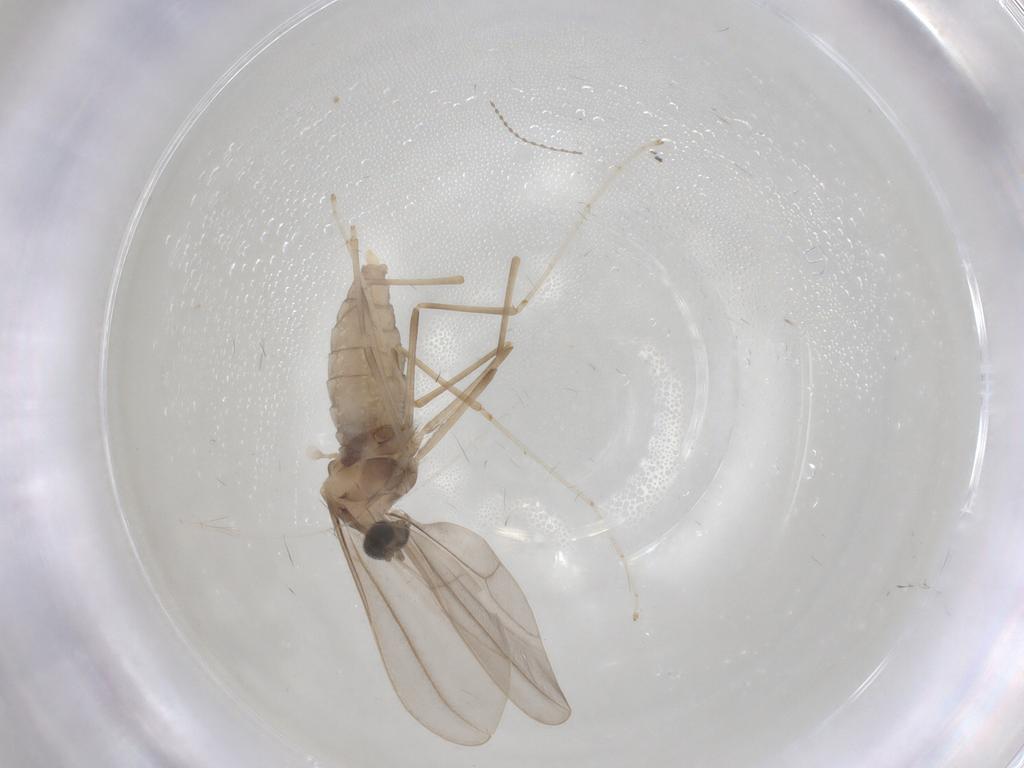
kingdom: Animalia
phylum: Arthropoda
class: Insecta
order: Diptera
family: Cecidomyiidae
